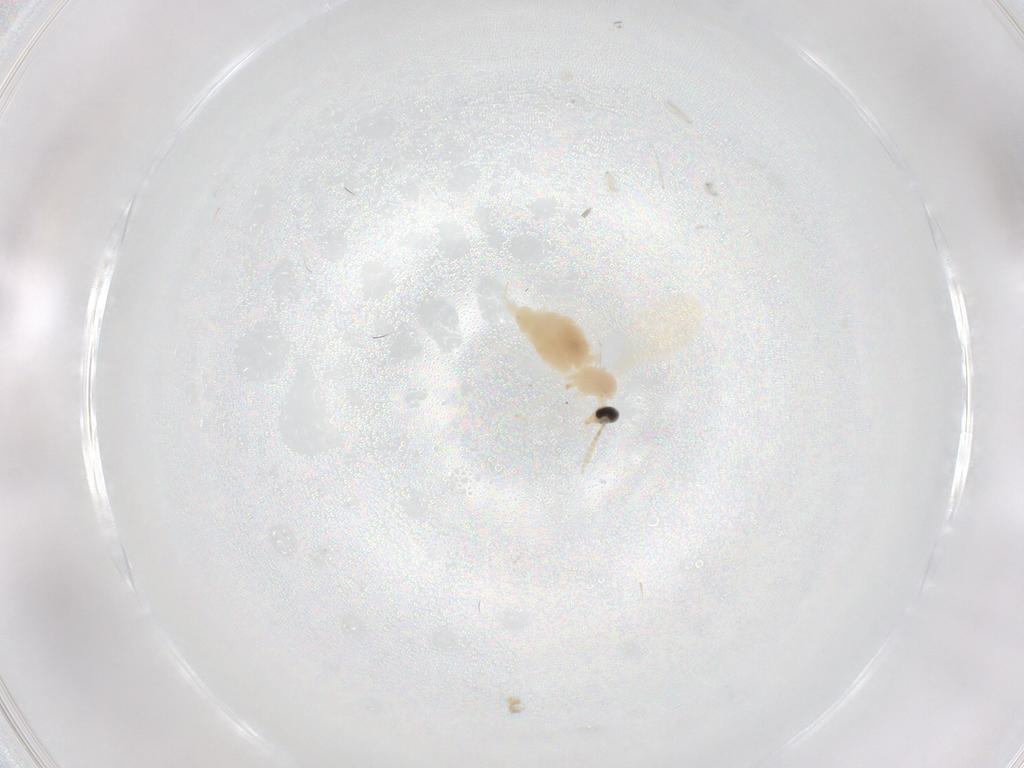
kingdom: Animalia
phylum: Arthropoda
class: Insecta
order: Diptera
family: Cecidomyiidae
